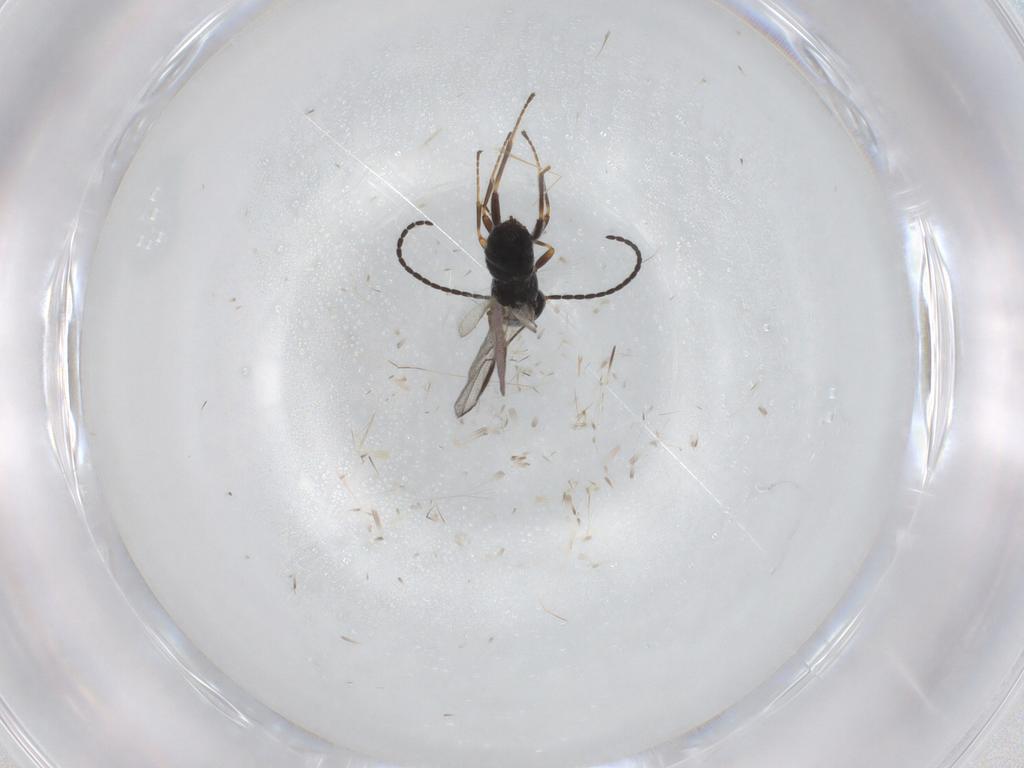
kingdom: Animalia
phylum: Arthropoda
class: Insecta
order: Hymenoptera
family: Braconidae
